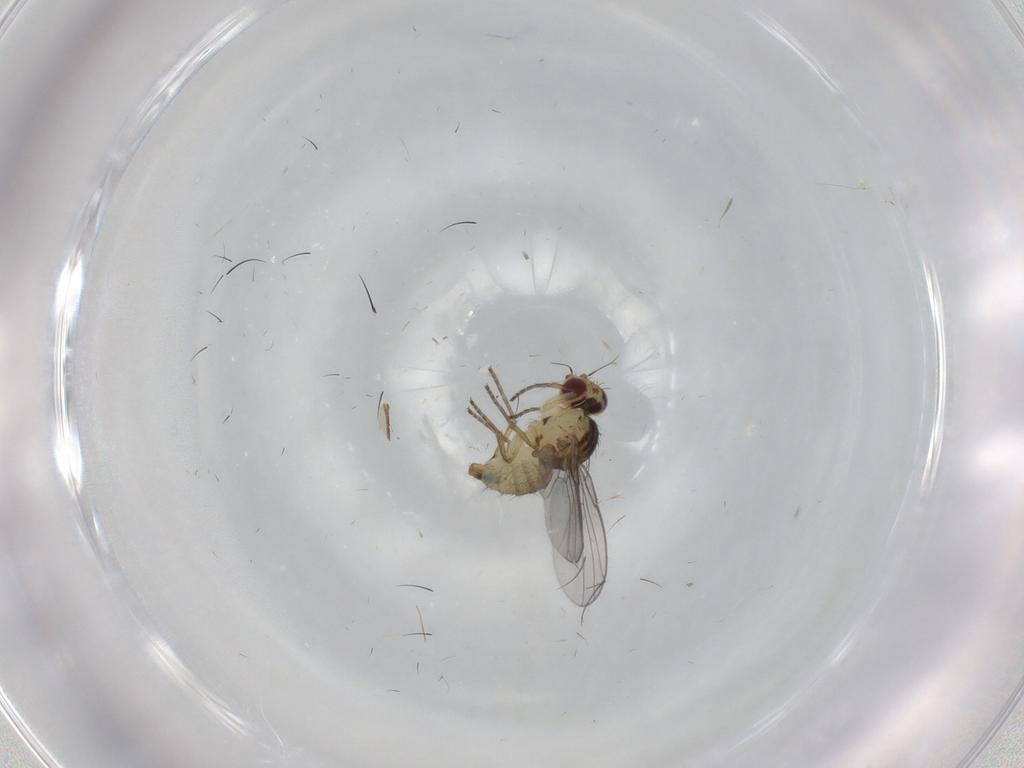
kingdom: Animalia
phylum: Arthropoda
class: Insecta
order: Diptera
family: Agromyzidae
